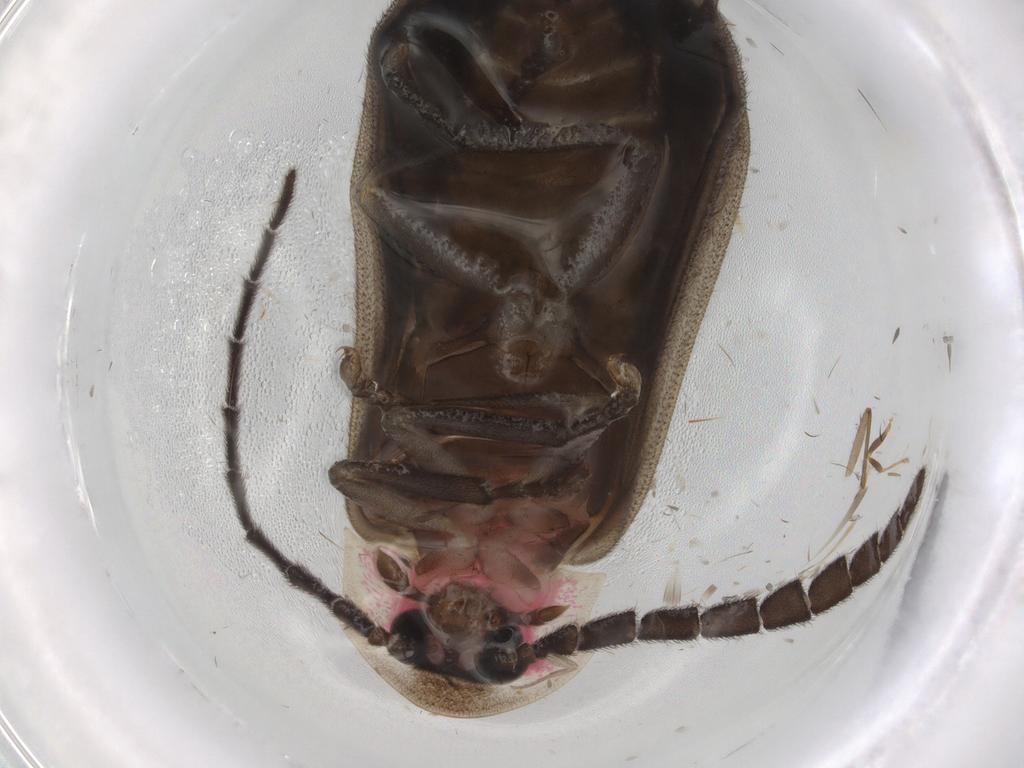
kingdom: Animalia
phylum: Arthropoda
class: Insecta
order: Coleoptera
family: Lampyridae
